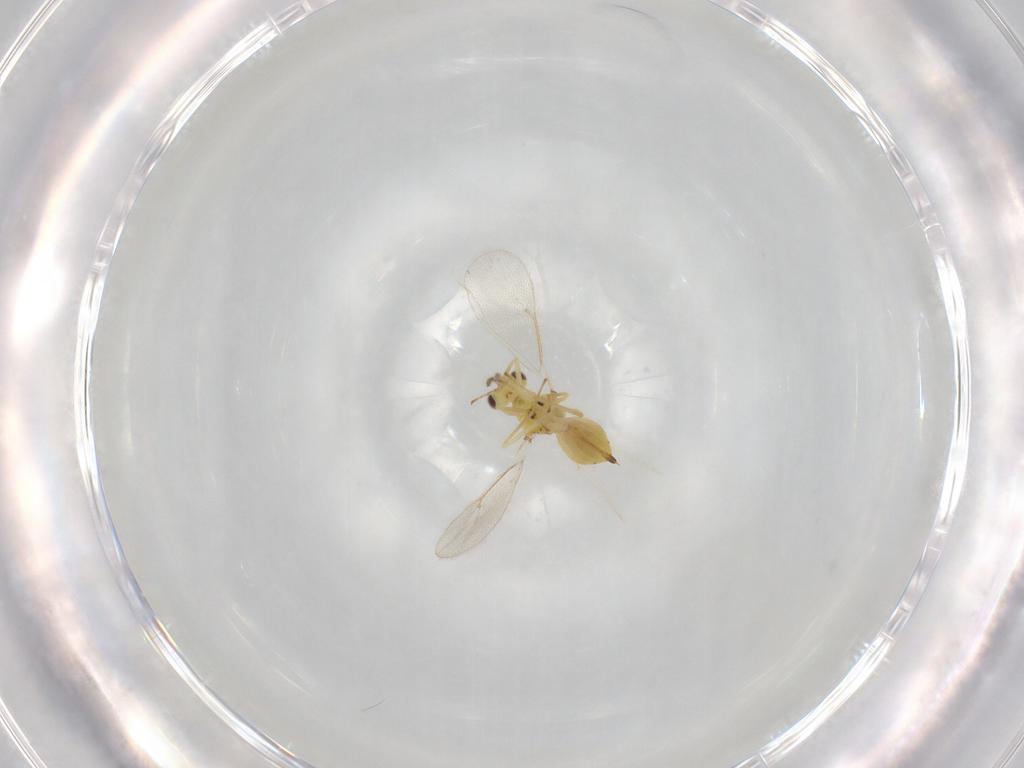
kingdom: Animalia
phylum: Arthropoda
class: Insecta
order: Hymenoptera
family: Eulophidae
